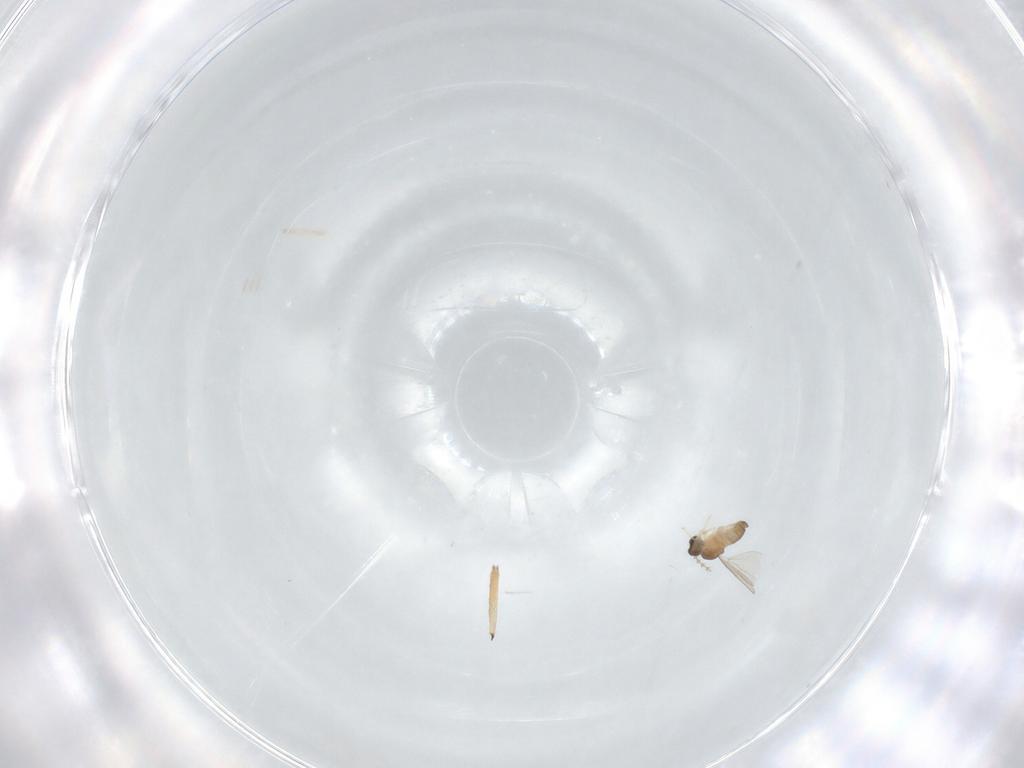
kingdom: Animalia
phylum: Arthropoda
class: Insecta
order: Diptera
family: Sciaridae
